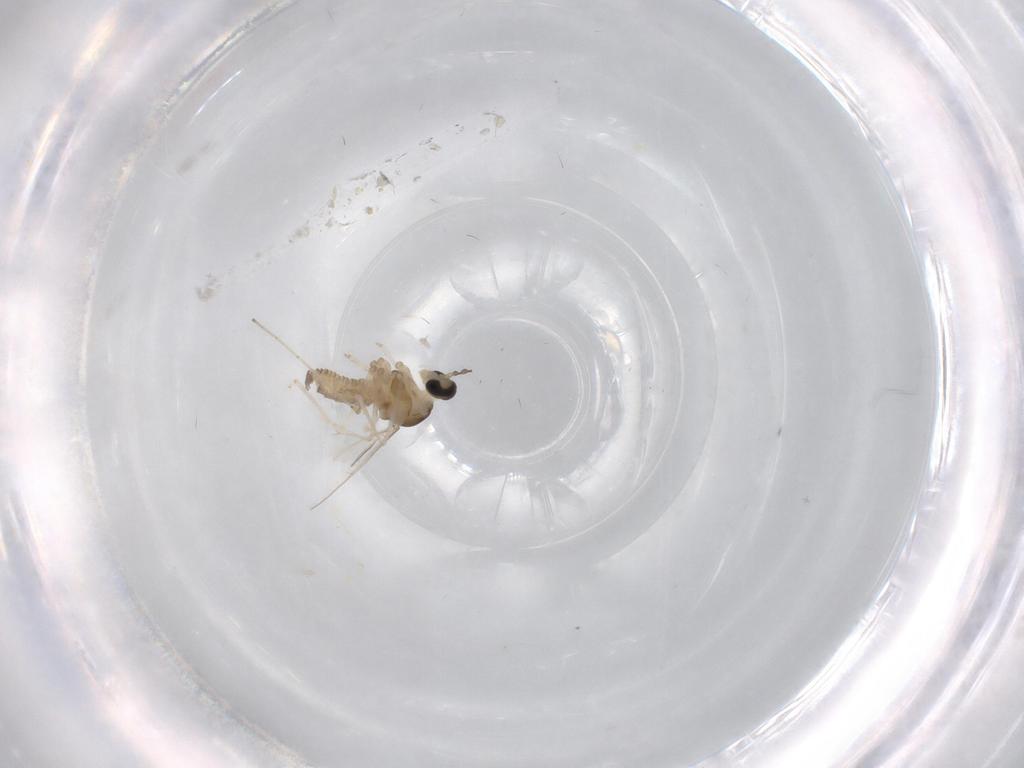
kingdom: Animalia
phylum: Arthropoda
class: Insecta
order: Diptera
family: Cecidomyiidae
